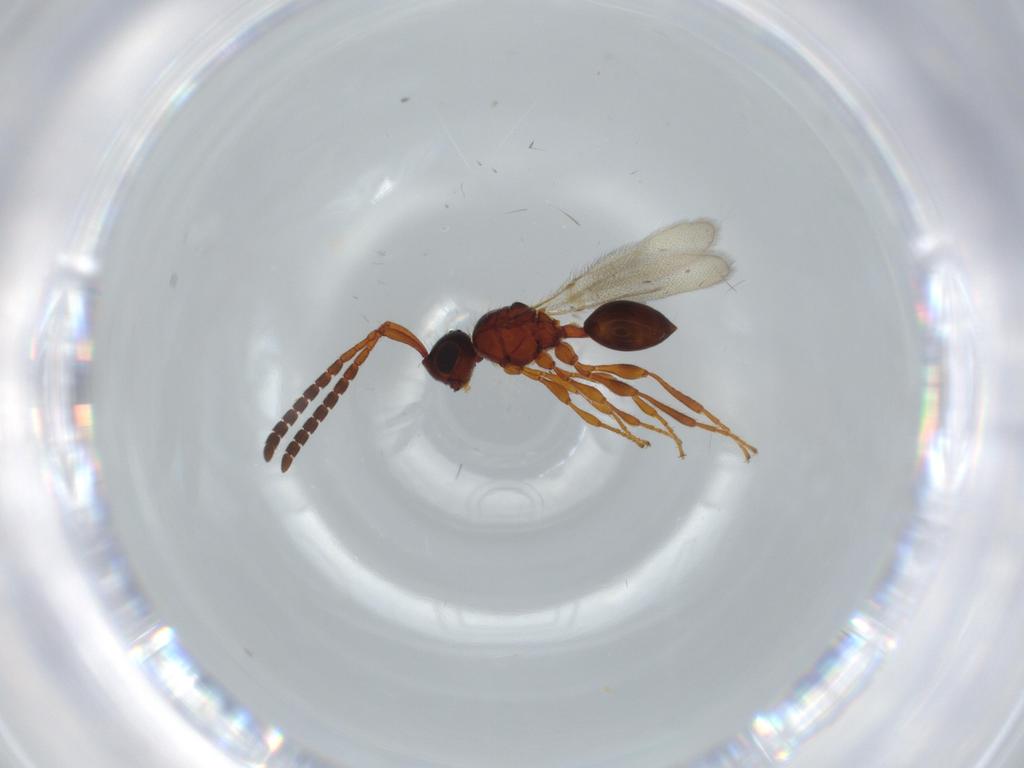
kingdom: Animalia
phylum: Arthropoda
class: Insecta
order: Hymenoptera
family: Diapriidae
